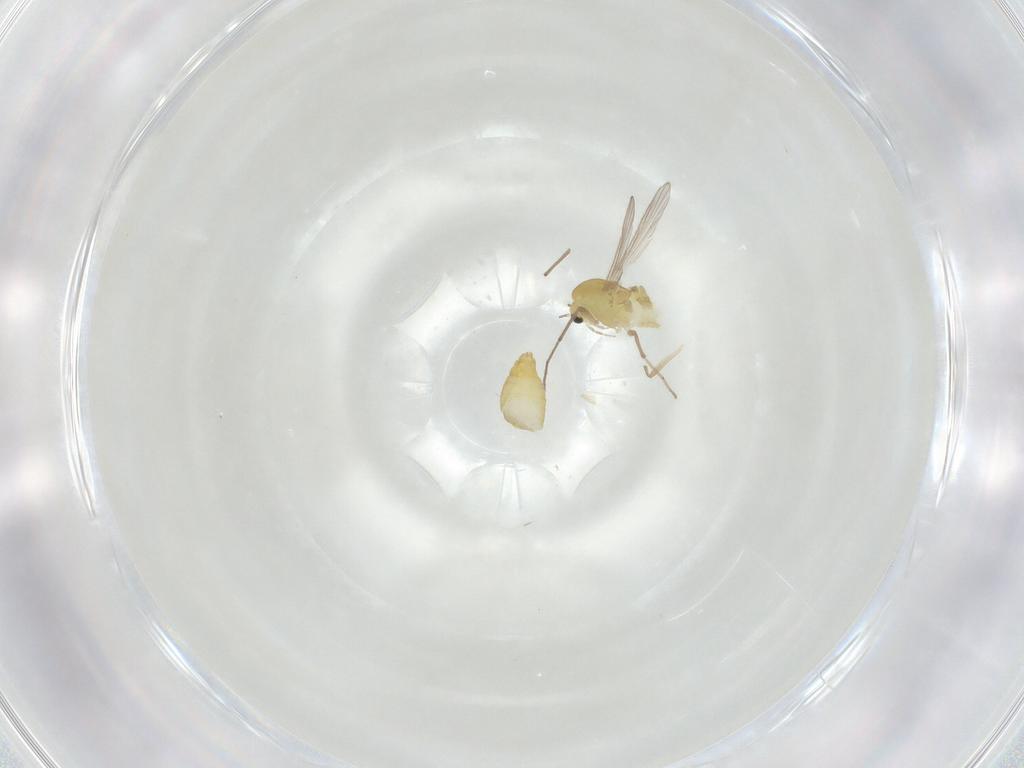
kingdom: Animalia
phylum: Arthropoda
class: Insecta
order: Diptera
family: Chironomidae
